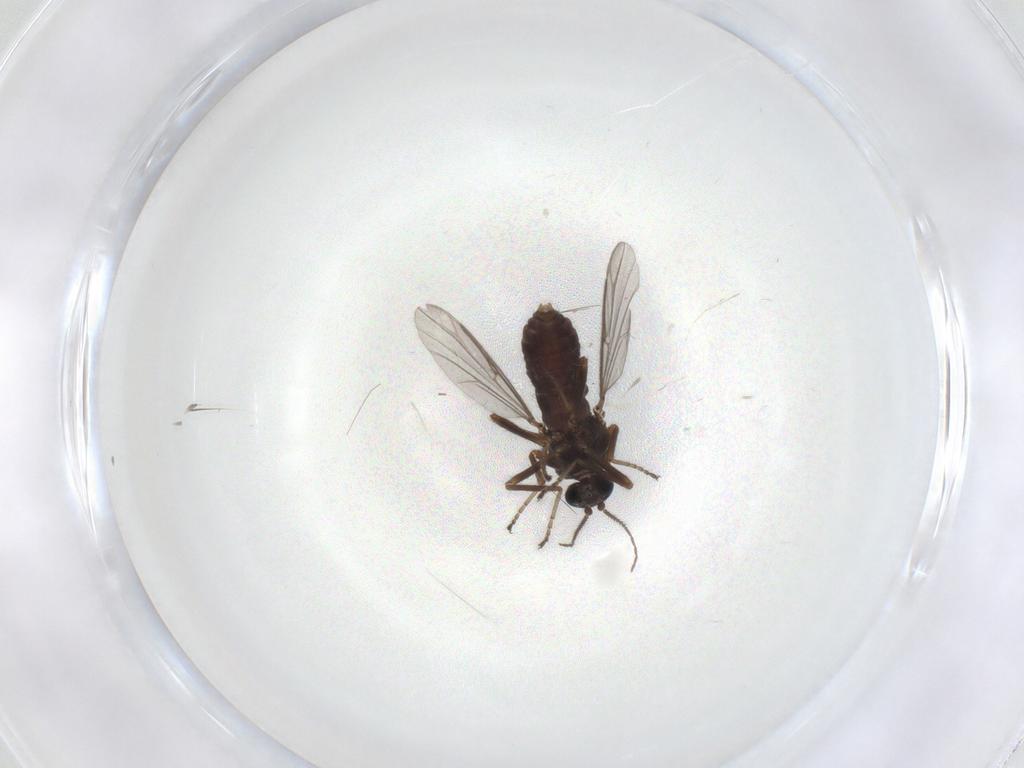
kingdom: Animalia
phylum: Arthropoda
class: Insecta
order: Diptera
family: Ceratopogonidae
